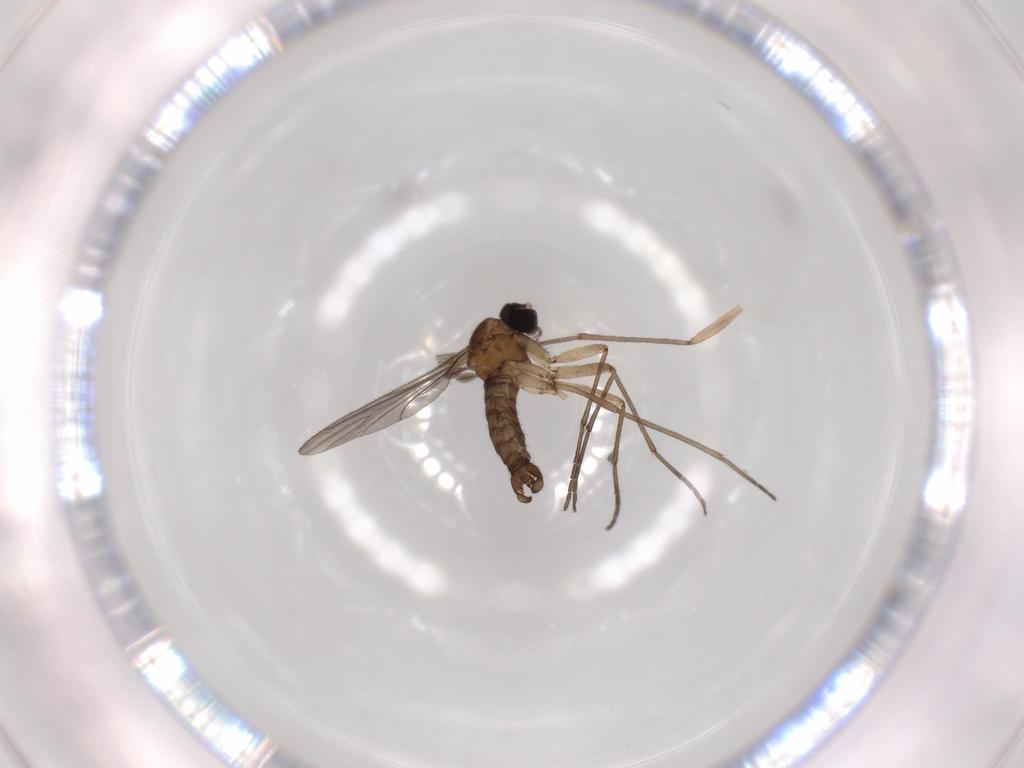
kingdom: Animalia
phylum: Arthropoda
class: Insecta
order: Diptera
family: Sciaridae
